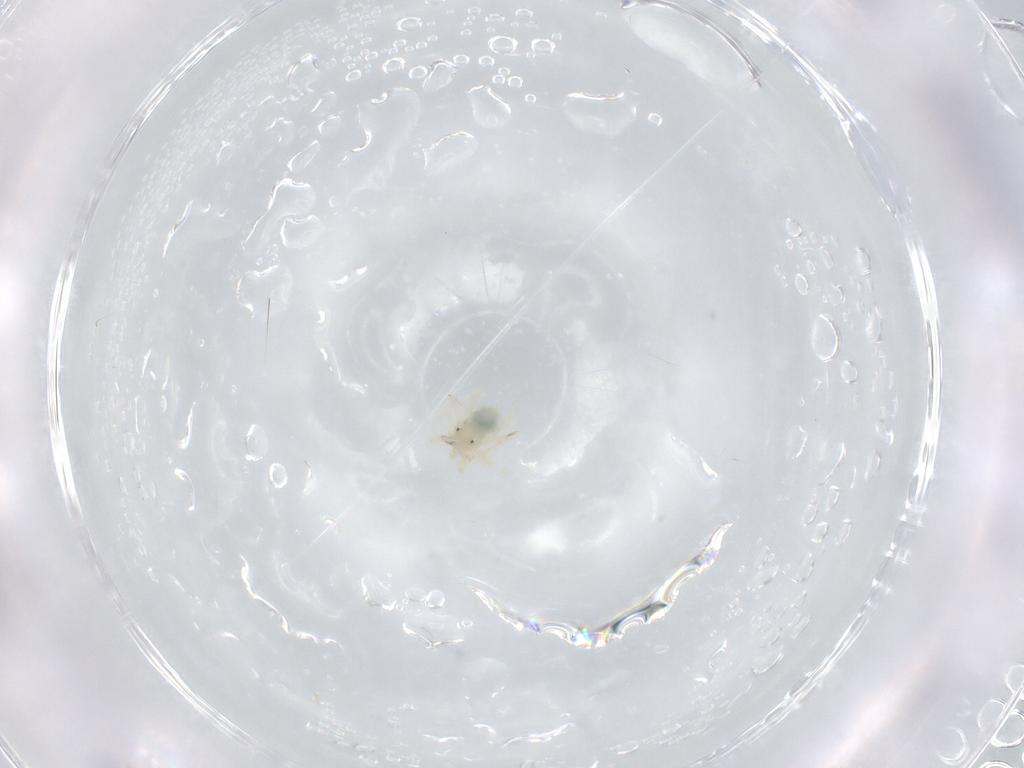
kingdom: Animalia
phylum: Arthropoda
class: Arachnida
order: Trombidiformes
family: Anystidae
